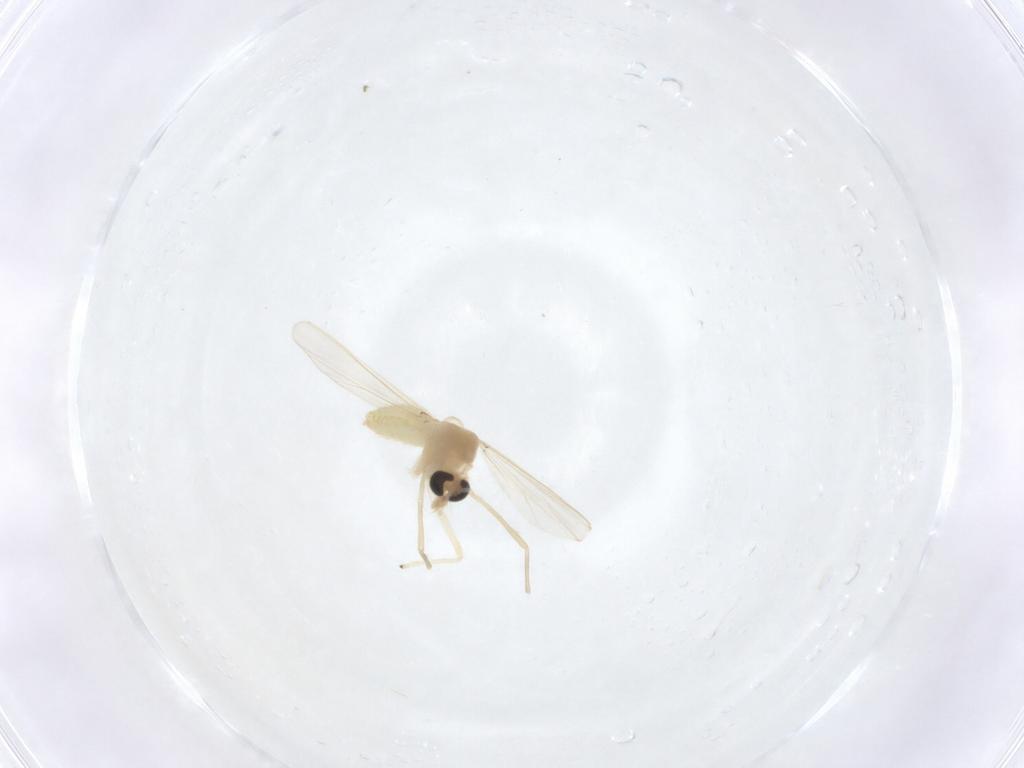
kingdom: Animalia
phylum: Arthropoda
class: Insecta
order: Diptera
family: Chironomidae
